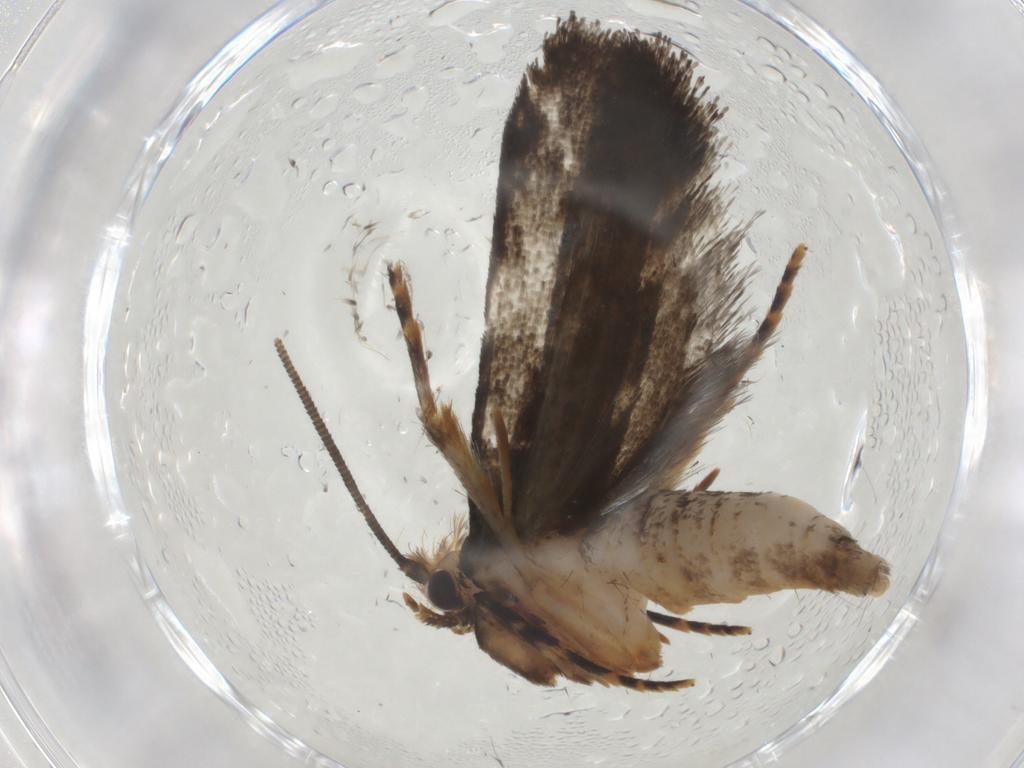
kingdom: Animalia
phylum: Arthropoda
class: Insecta
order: Lepidoptera
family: Tineidae
